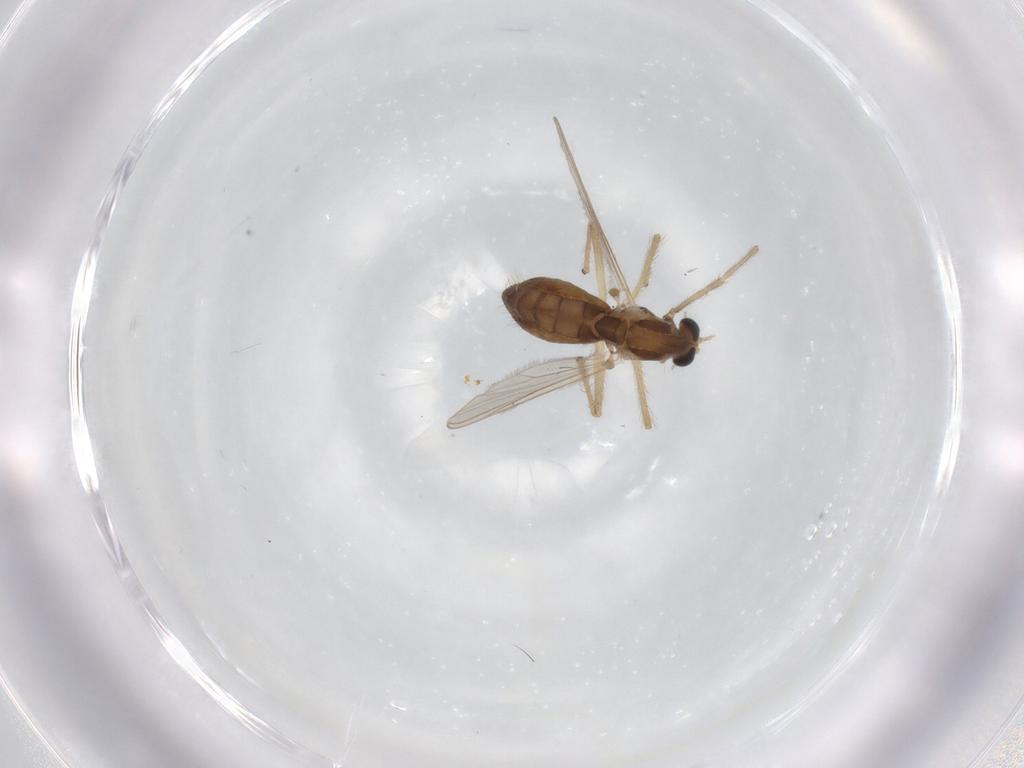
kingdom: Animalia
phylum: Arthropoda
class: Insecta
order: Diptera
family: Chironomidae
